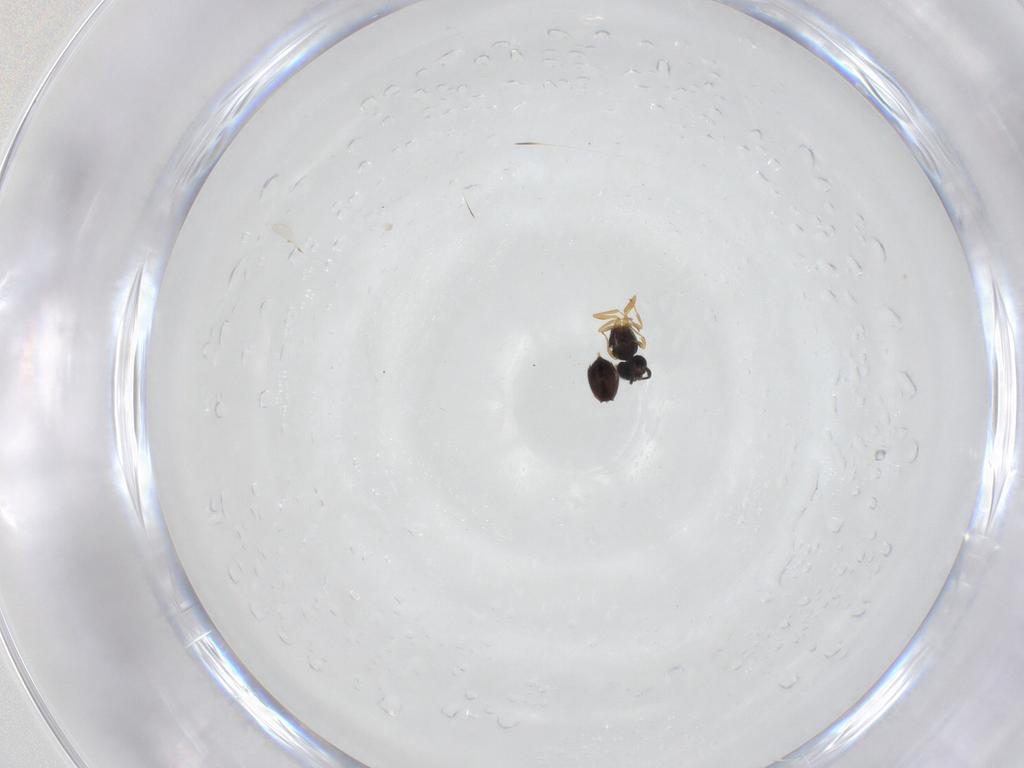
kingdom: Animalia
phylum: Arthropoda
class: Insecta
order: Hymenoptera
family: Scelionidae
